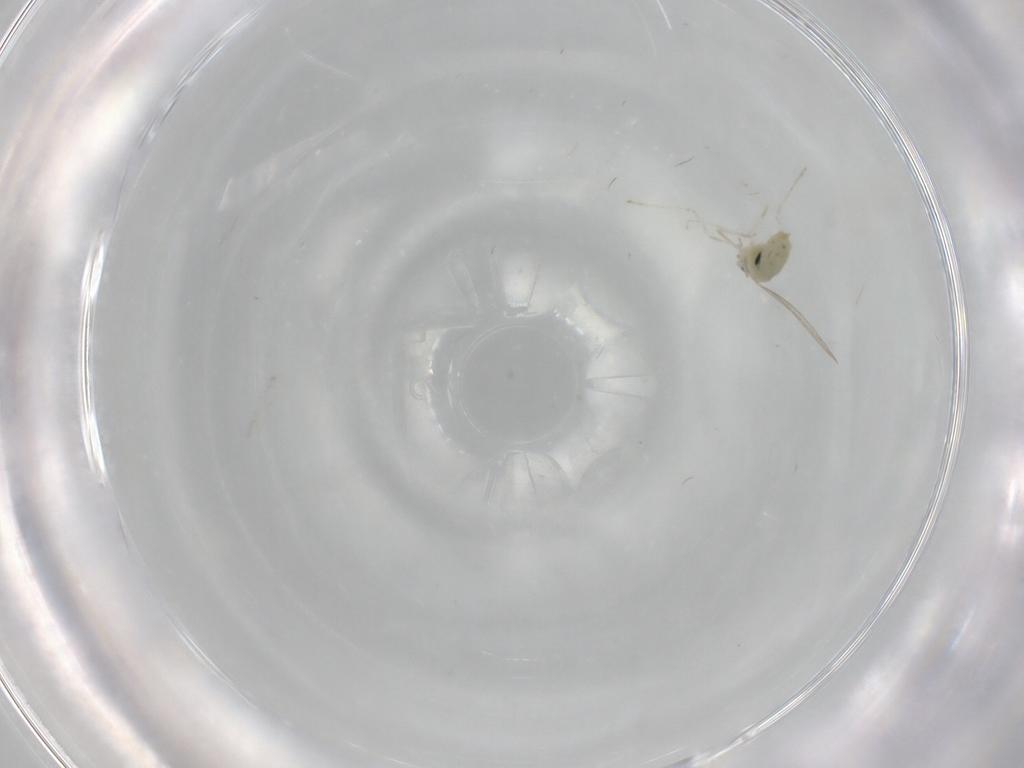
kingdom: Animalia
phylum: Arthropoda
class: Insecta
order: Diptera
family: Cecidomyiidae
